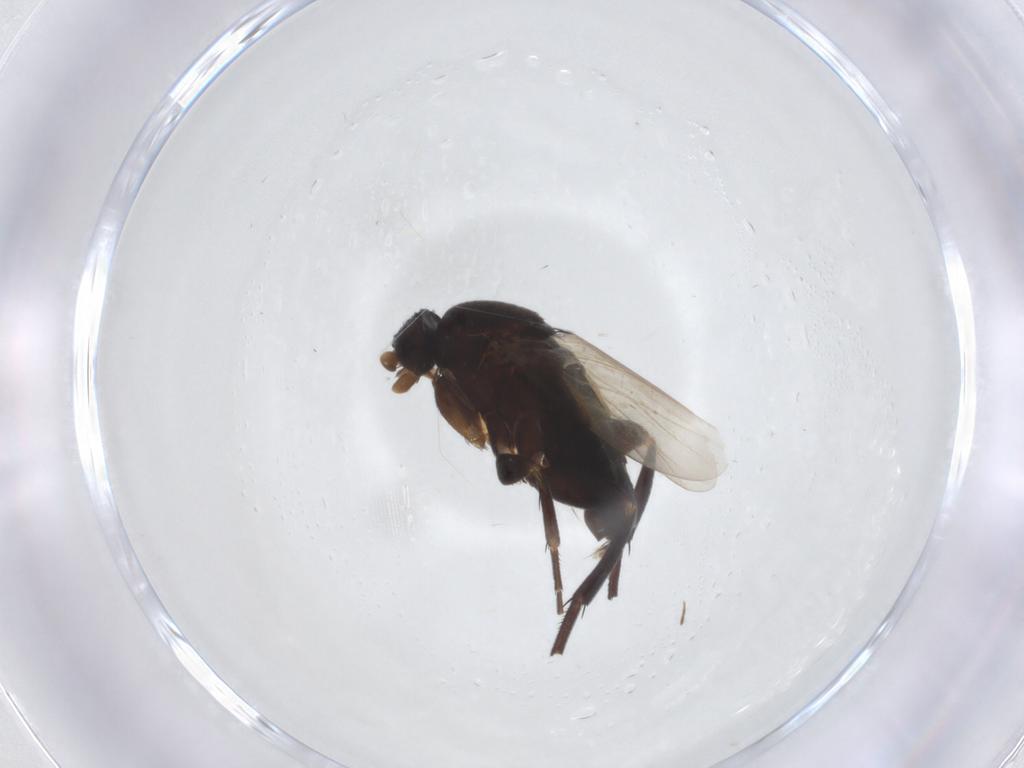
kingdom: Animalia
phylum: Arthropoda
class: Insecta
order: Diptera
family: Phoridae
